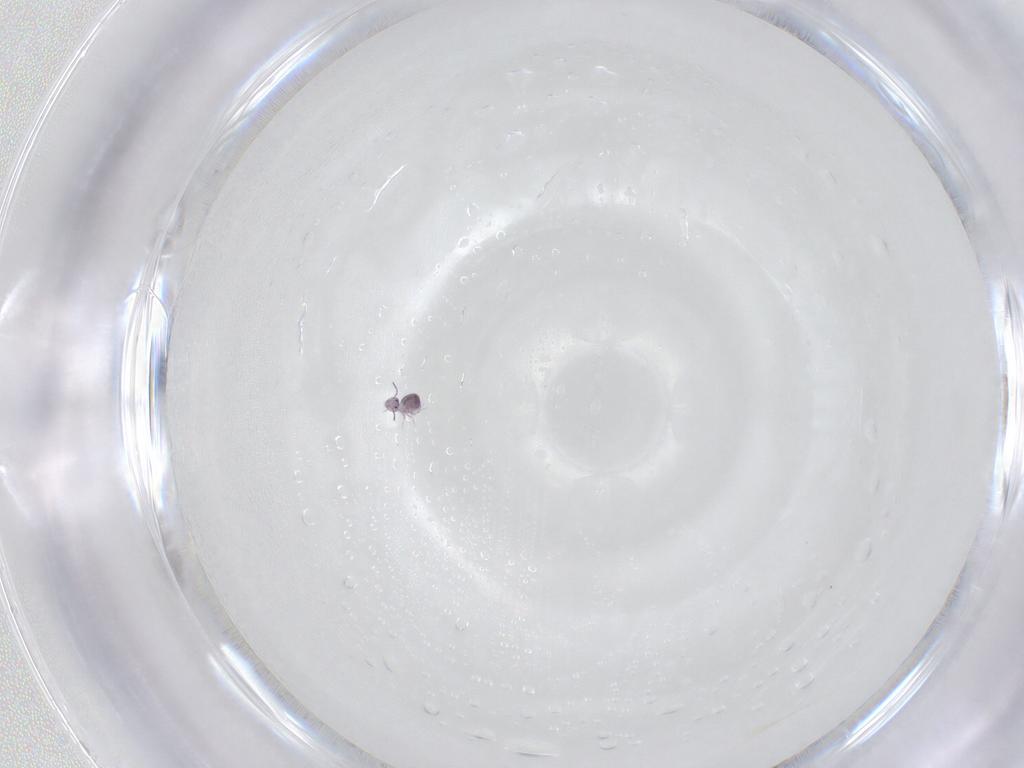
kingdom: Animalia
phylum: Arthropoda
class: Collembola
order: Symphypleona
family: Sminthurididae
